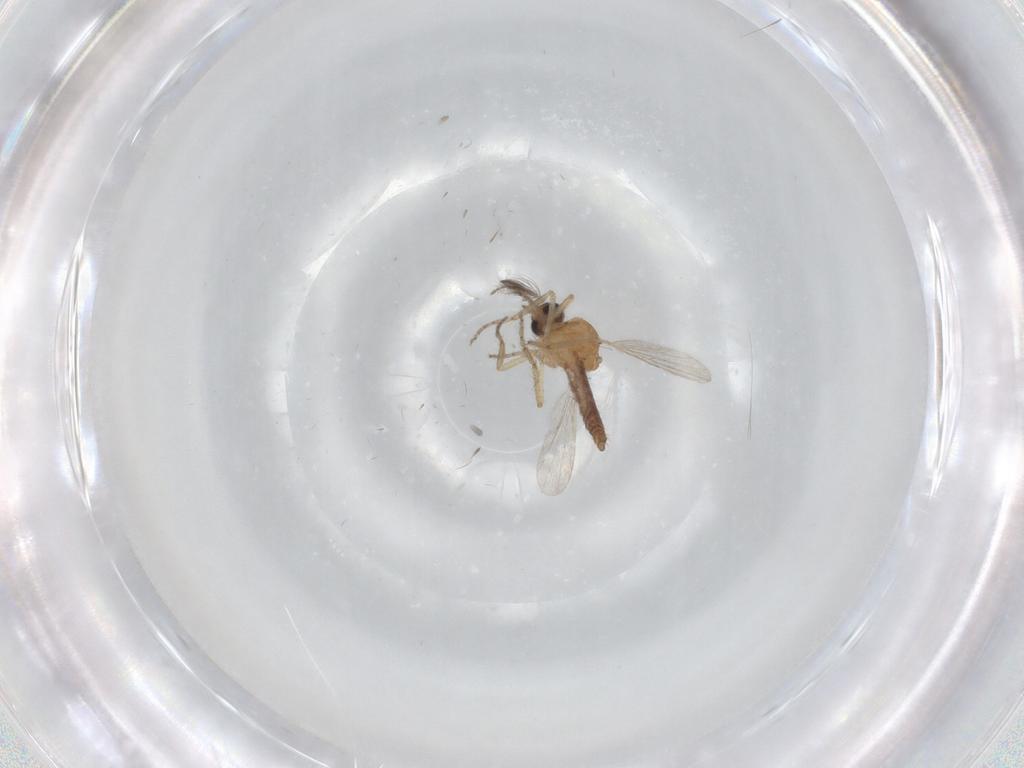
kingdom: Animalia
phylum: Arthropoda
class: Insecta
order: Diptera
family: Ceratopogonidae
